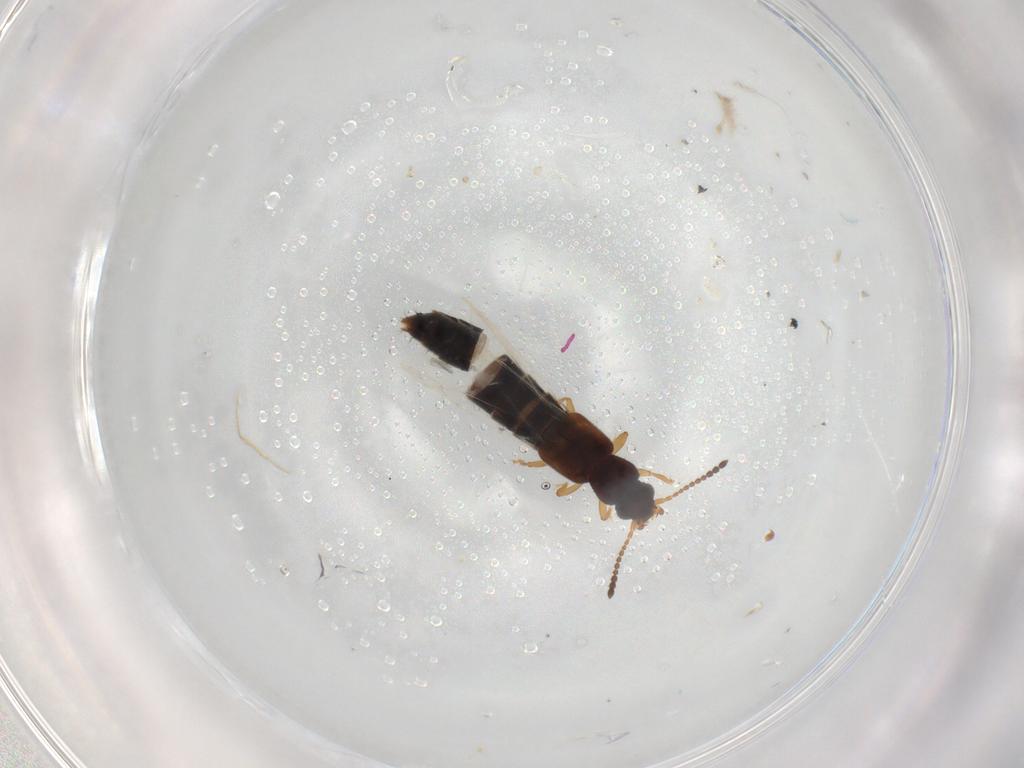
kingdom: Animalia
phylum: Arthropoda
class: Insecta
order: Coleoptera
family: Staphylinidae
